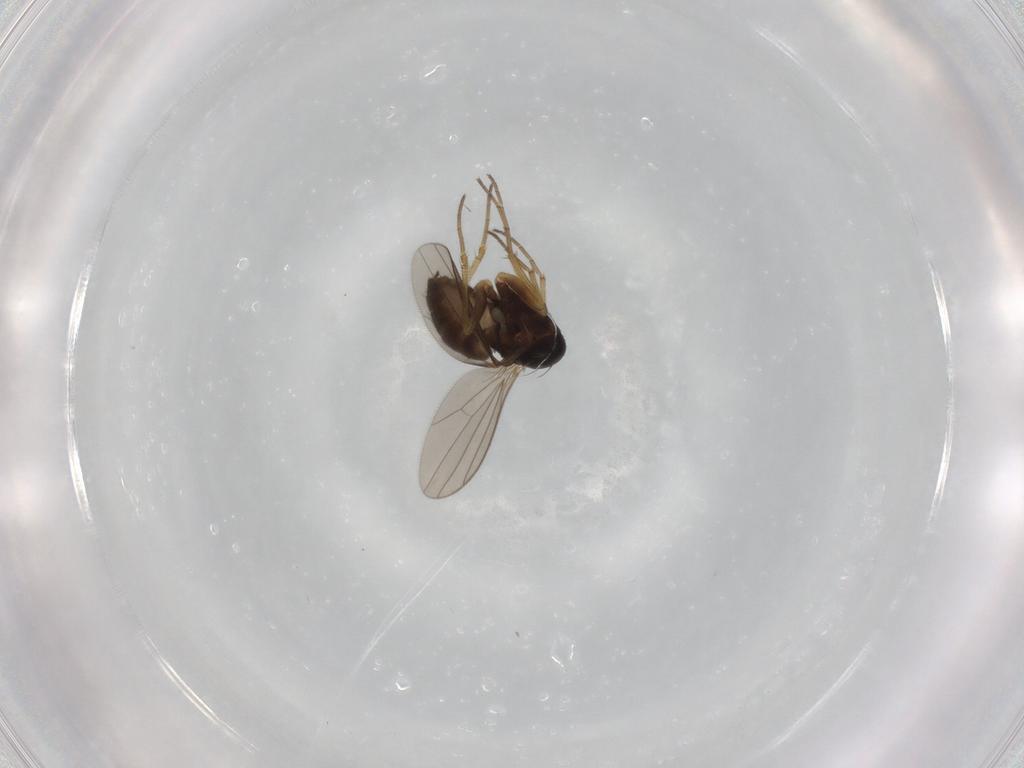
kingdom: Animalia
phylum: Arthropoda
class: Insecta
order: Diptera
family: Dolichopodidae
